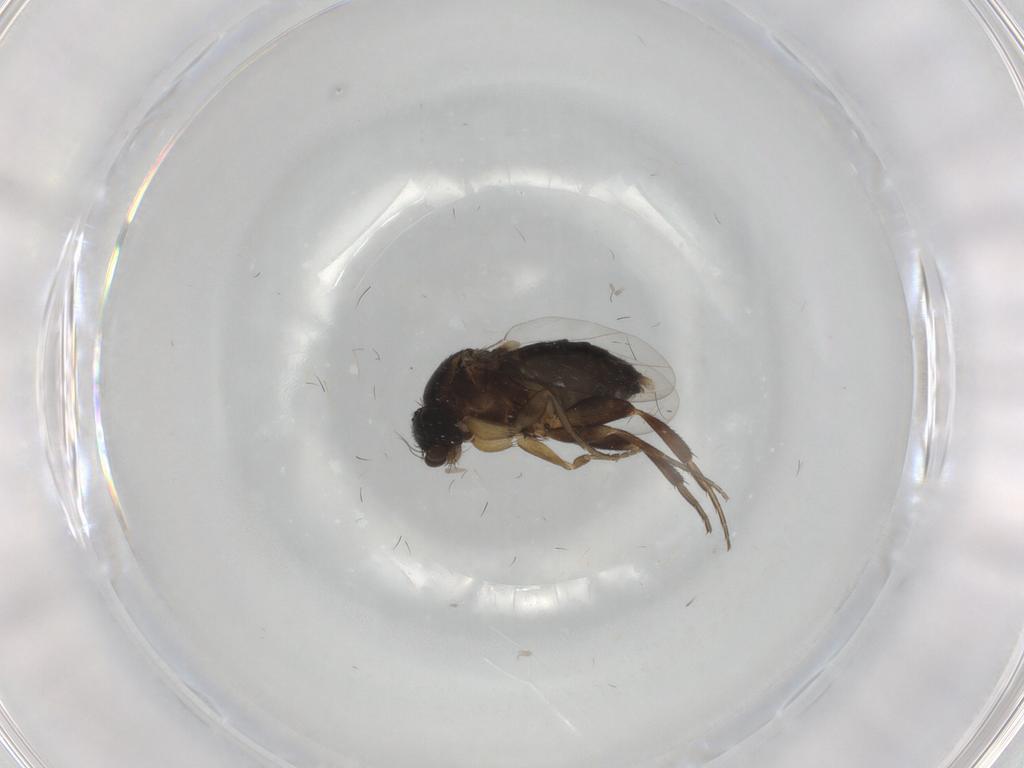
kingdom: Animalia
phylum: Arthropoda
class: Insecta
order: Diptera
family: Phoridae
